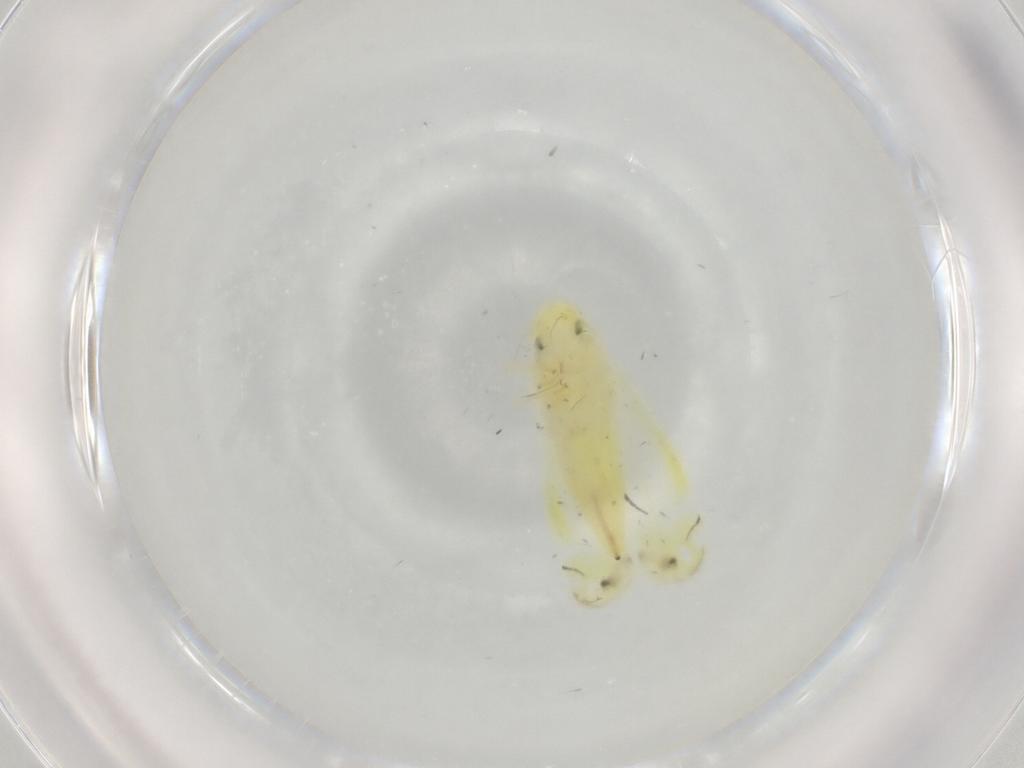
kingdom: Animalia
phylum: Arthropoda
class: Insecta
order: Hemiptera
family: Cicadellidae
